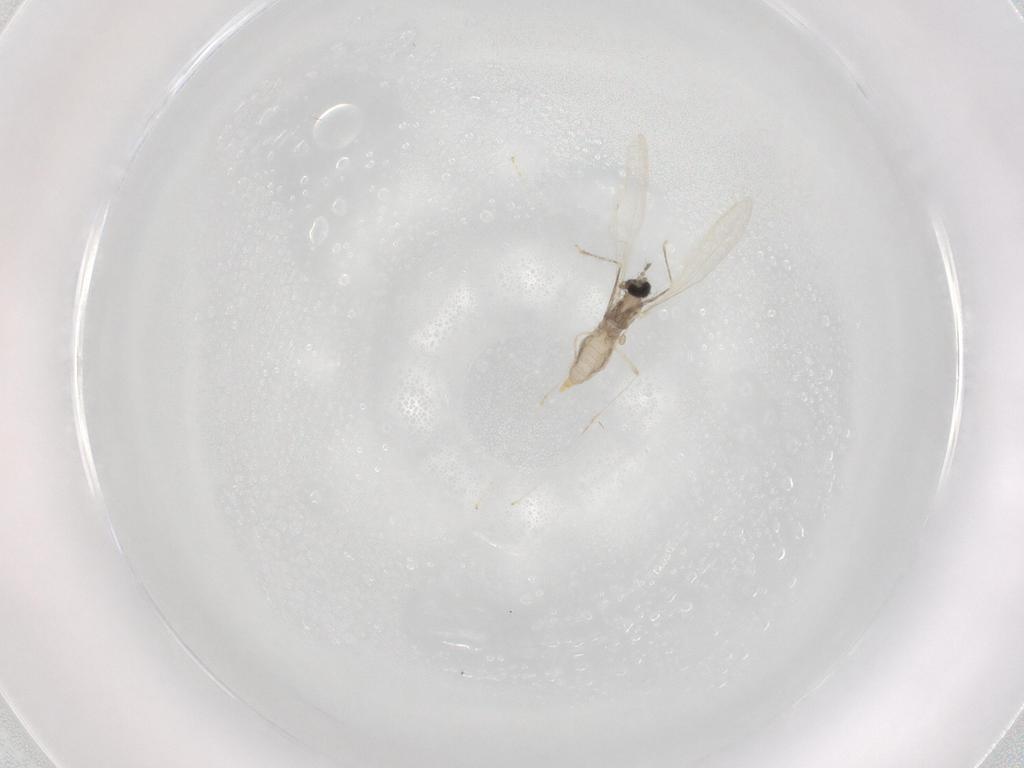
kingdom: Animalia
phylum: Arthropoda
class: Insecta
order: Diptera
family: Cecidomyiidae
